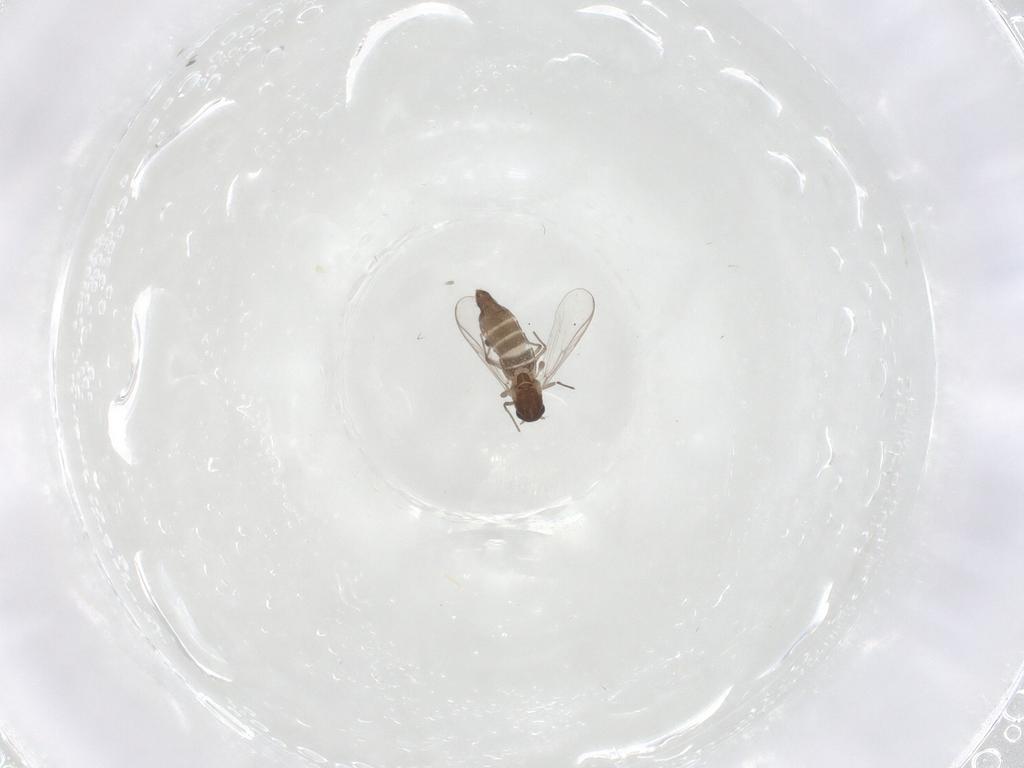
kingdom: Animalia
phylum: Arthropoda
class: Insecta
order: Diptera
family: Chironomidae
